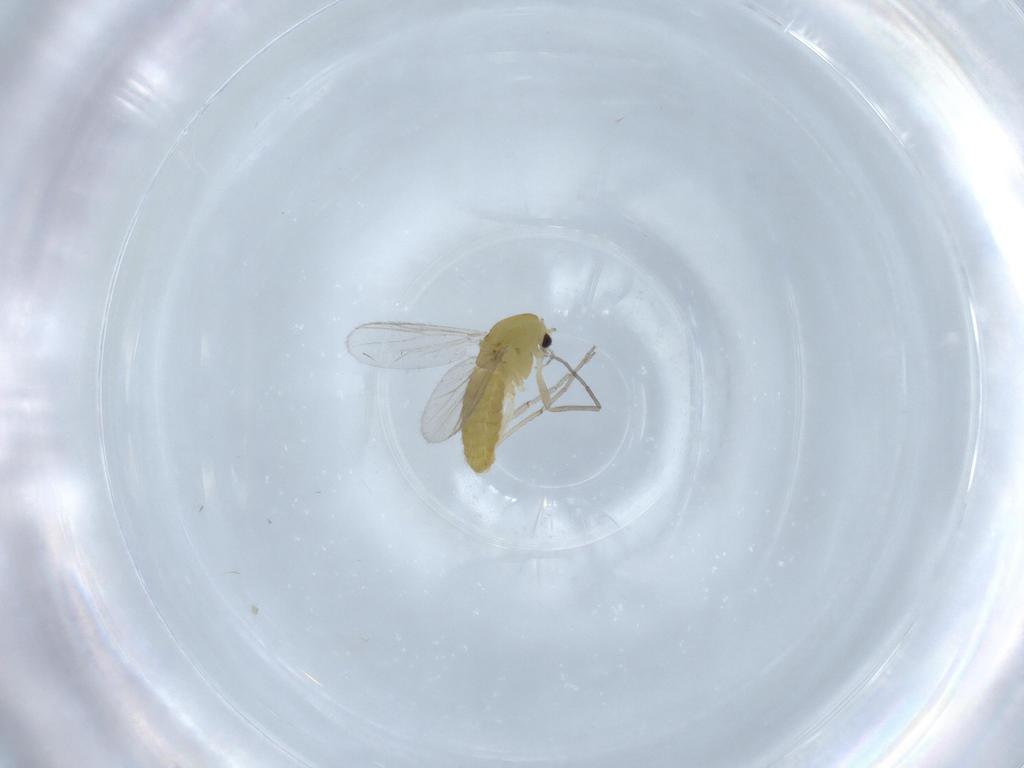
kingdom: Animalia
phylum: Arthropoda
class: Insecta
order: Diptera
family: Chironomidae
